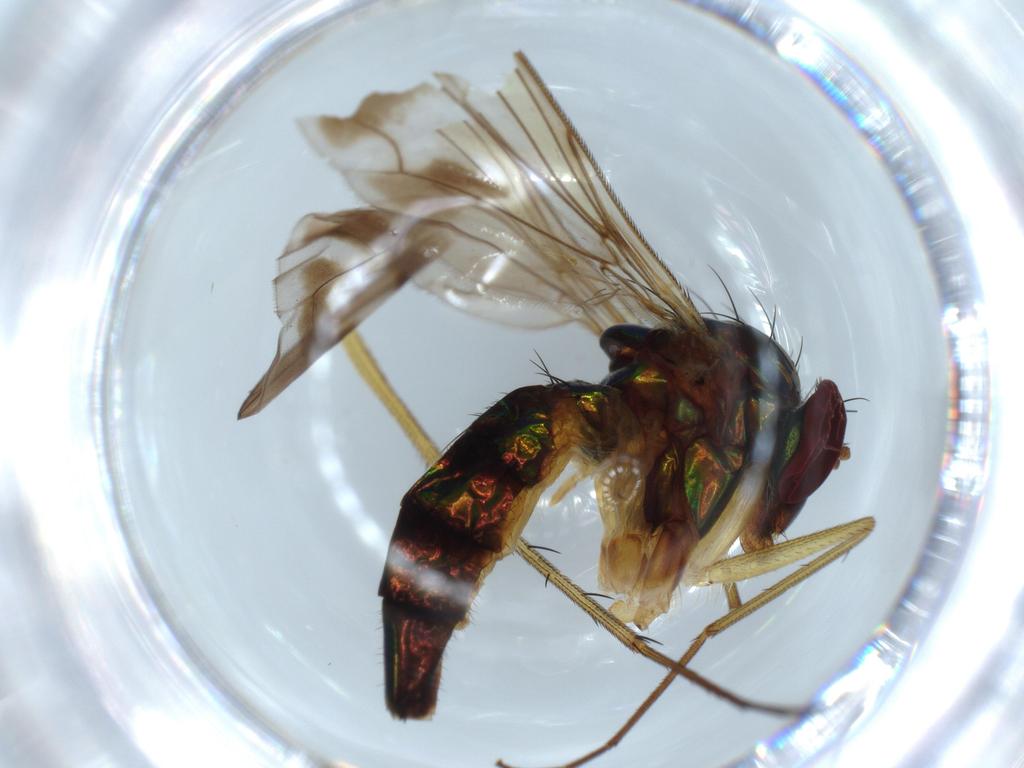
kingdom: Animalia
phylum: Arthropoda
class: Insecta
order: Diptera
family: Dolichopodidae
